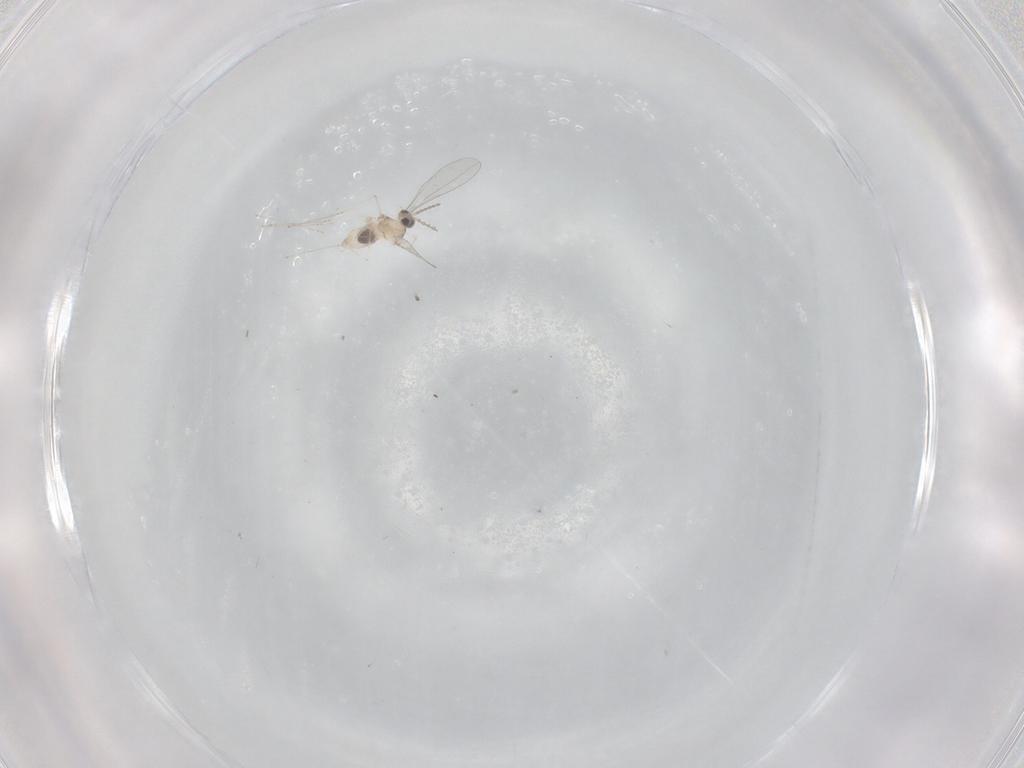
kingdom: Animalia
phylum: Arthropoda
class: Insecta
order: Diptera
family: Cecidomyiidae
